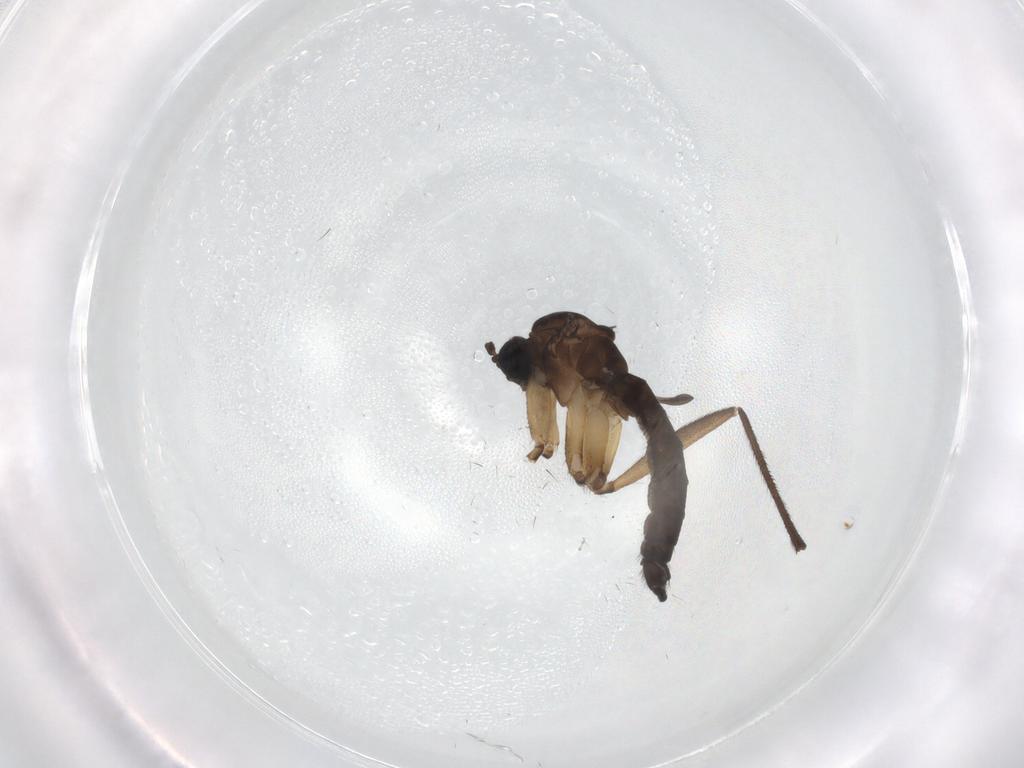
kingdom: Animalia
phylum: Arthropoda
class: Insecta
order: Diptera
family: Sciaridae
